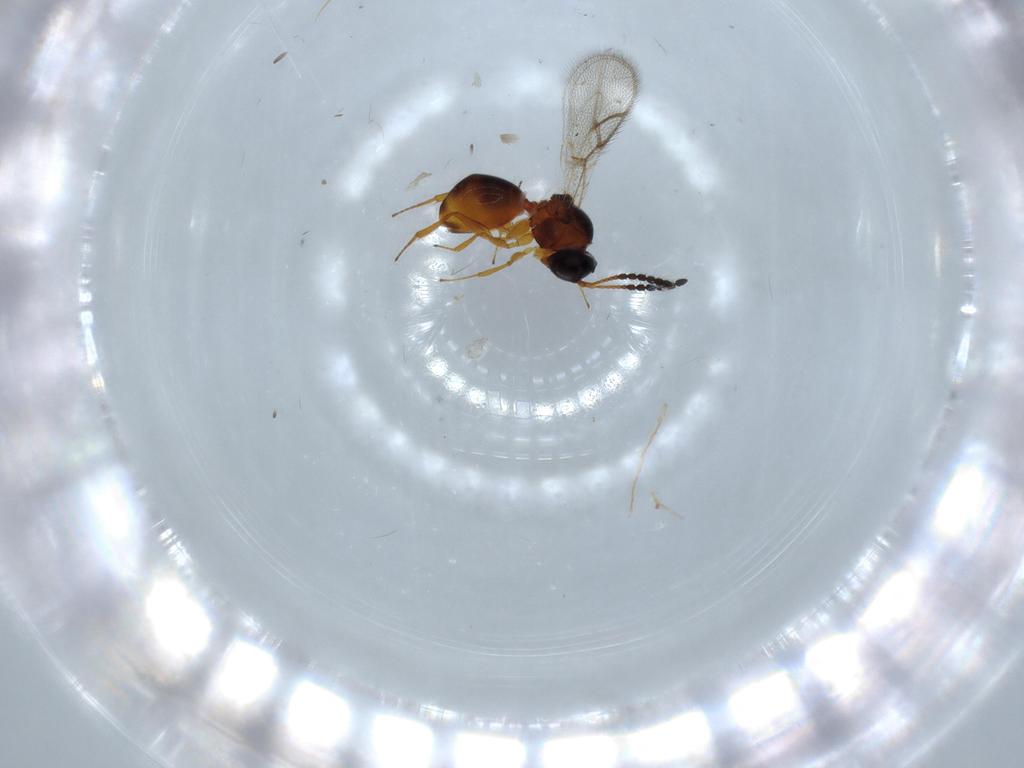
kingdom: Animalia
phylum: Arthropoda
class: Insecta
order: Hymenoptera
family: Figitidae
